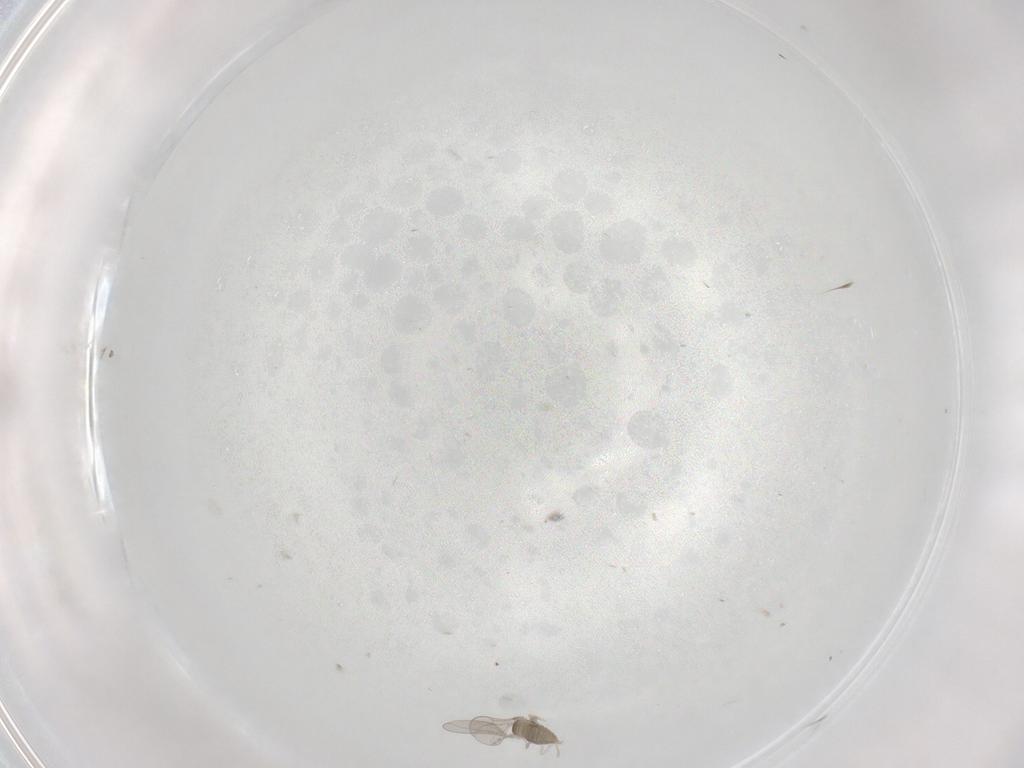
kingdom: Animalia
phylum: Arthropoda
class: Insecta
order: Diptera
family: Cecidomyiidae
